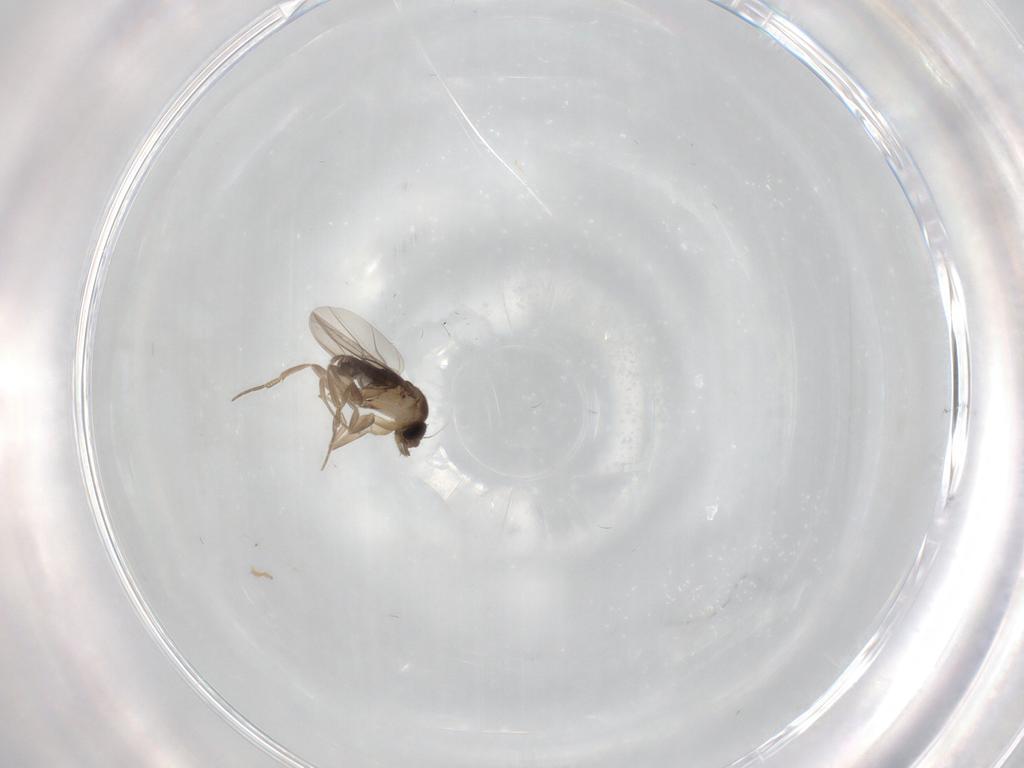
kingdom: Animalia
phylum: Arthropoda
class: Insecta
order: Diptera
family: Phoridae
